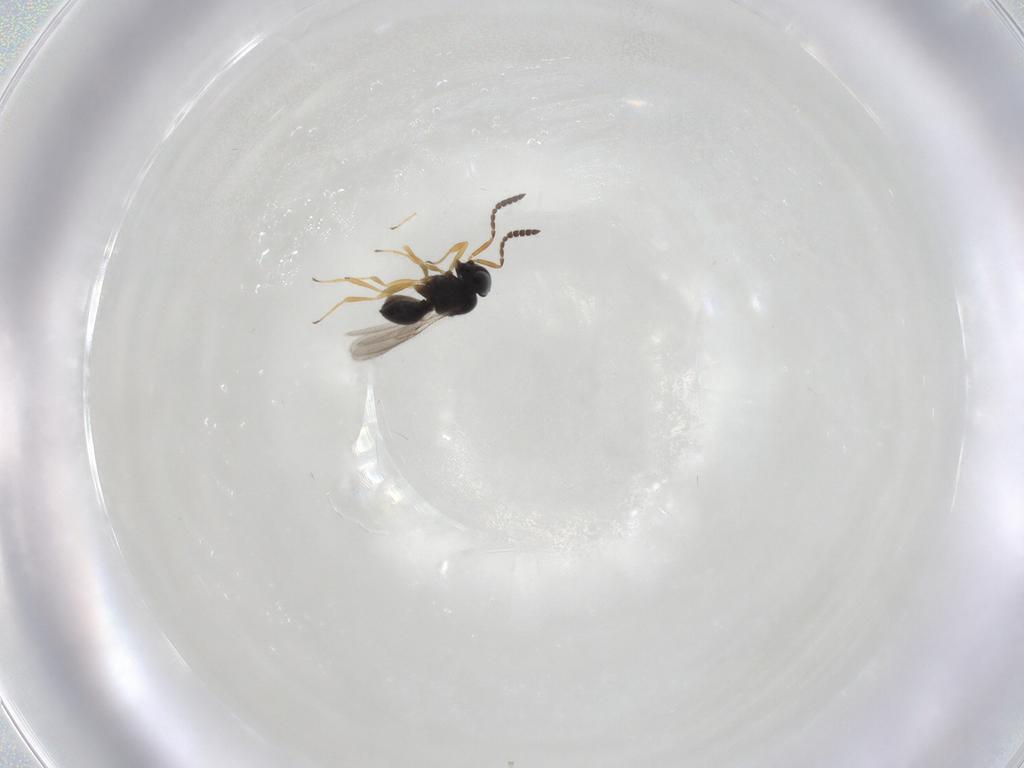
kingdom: Animalia
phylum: Arthropoda
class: Insecta
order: Hymenoptera
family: Scelionidae
